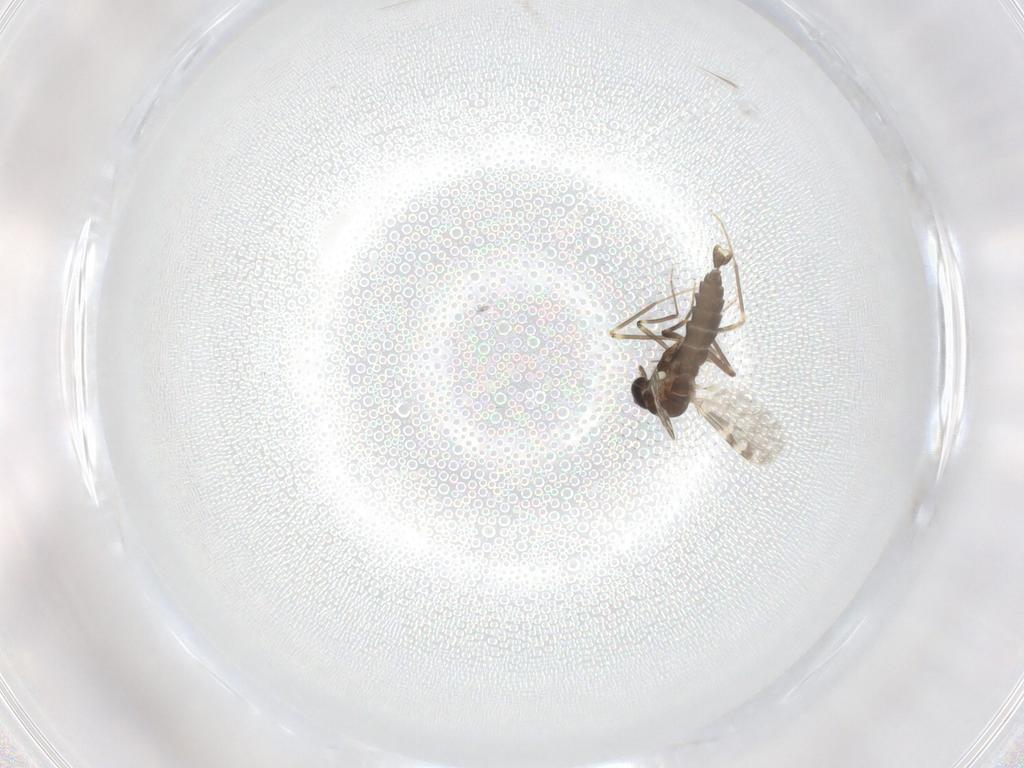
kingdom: Animalia
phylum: Arthropoda
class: Insecta
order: Diptera
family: Ceratopogonidae
